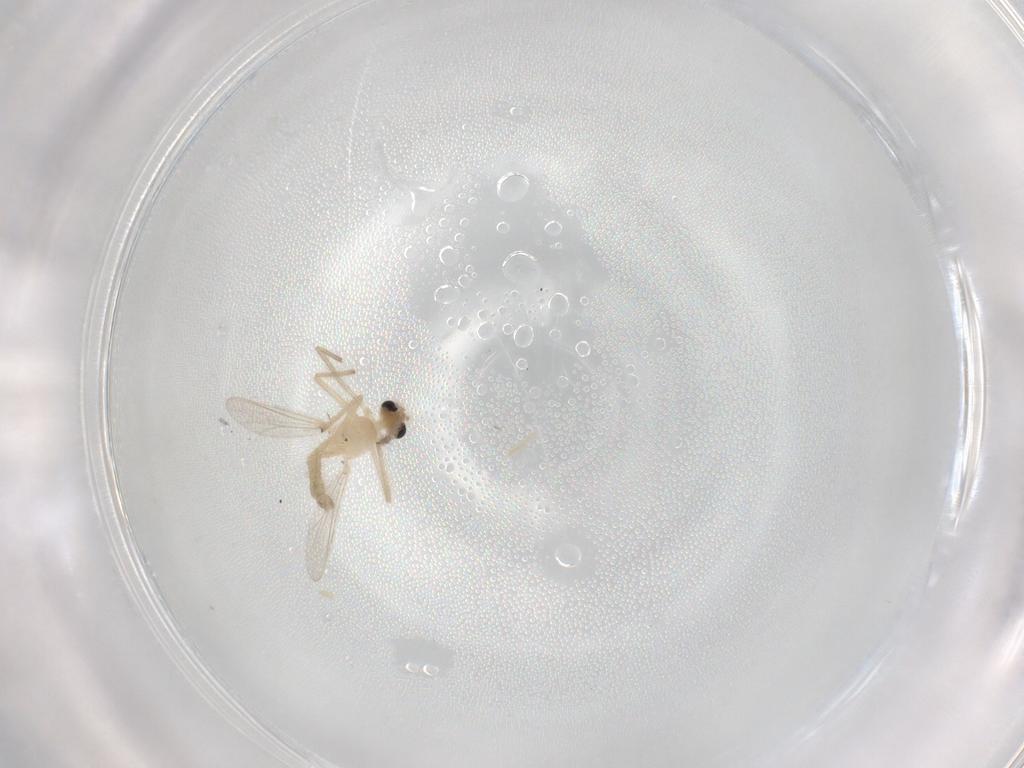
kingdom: Animalia
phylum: Arthropoda
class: Insecta
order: Diptera
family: Chironomidae
